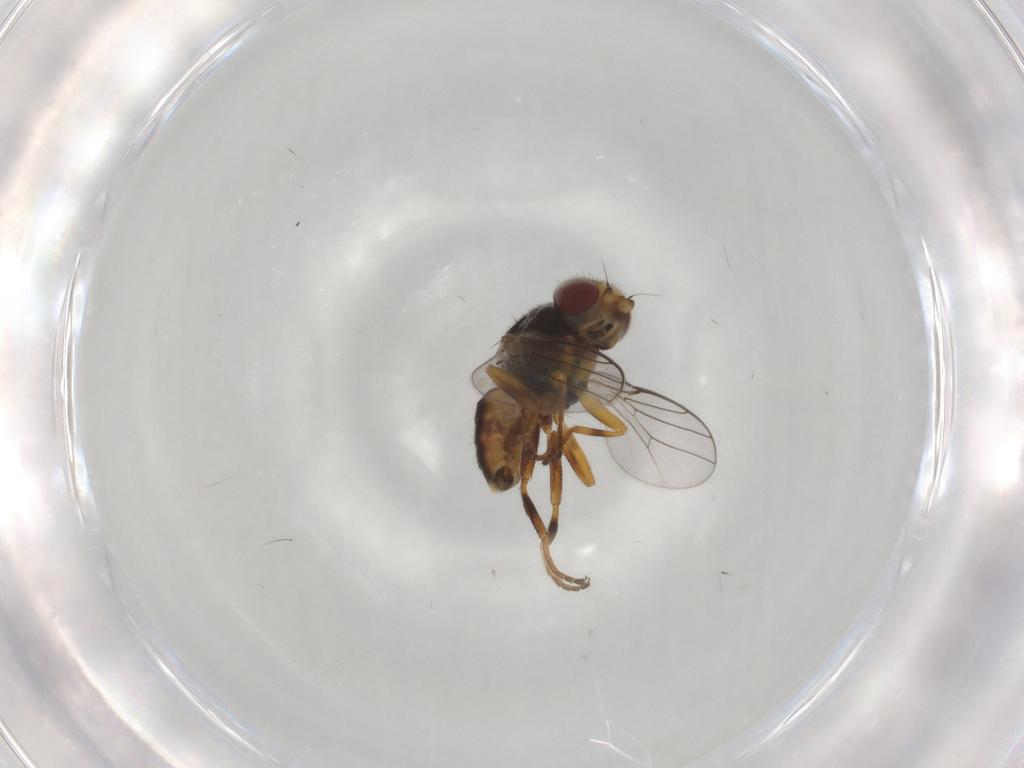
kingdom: Animalia
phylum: Arthropoda
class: Insecta
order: Diptera
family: Chloropidae
